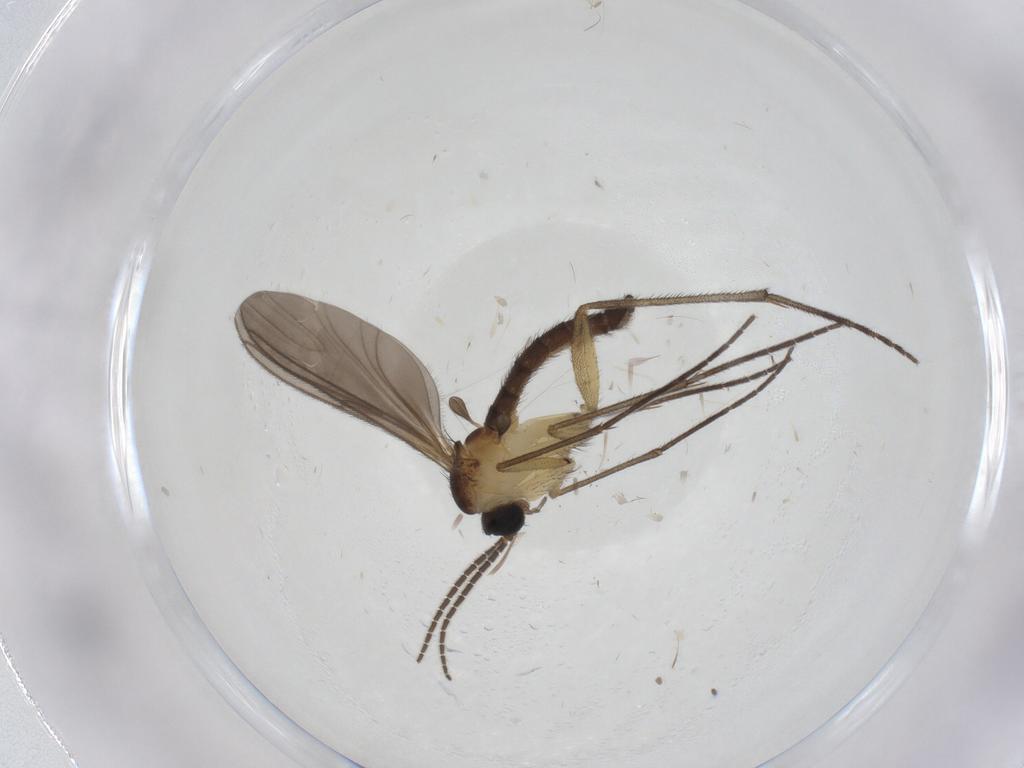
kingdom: Animalia
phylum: Arthropoda
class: Insecta
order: Diptera
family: Sciaridae
